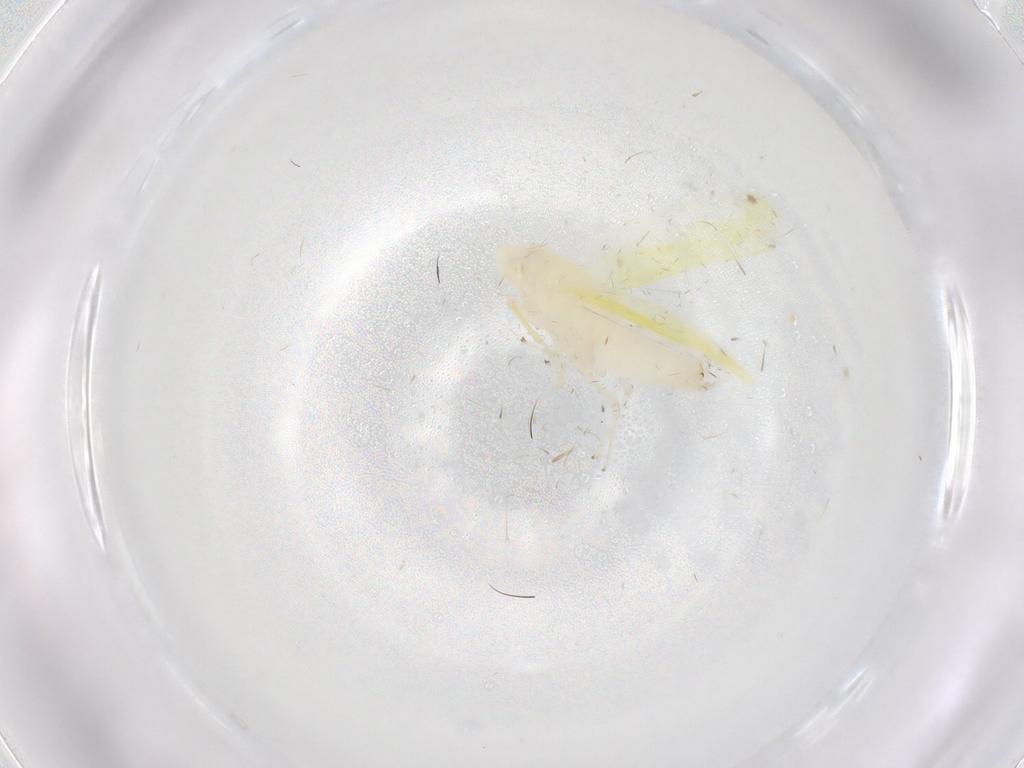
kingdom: Animalia
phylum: Arthropoda
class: Insecta
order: Hemiptera
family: Cicadellidae
